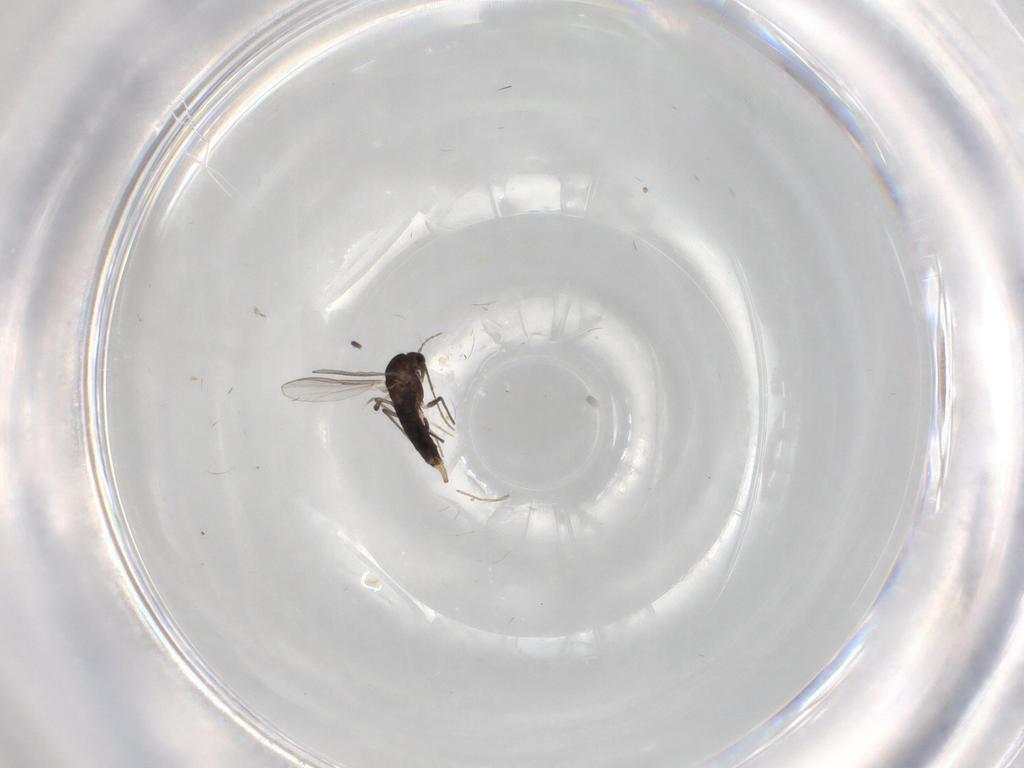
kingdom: Animalia
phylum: Arthropoda
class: Insecta
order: Diptera
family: Chironomidae
